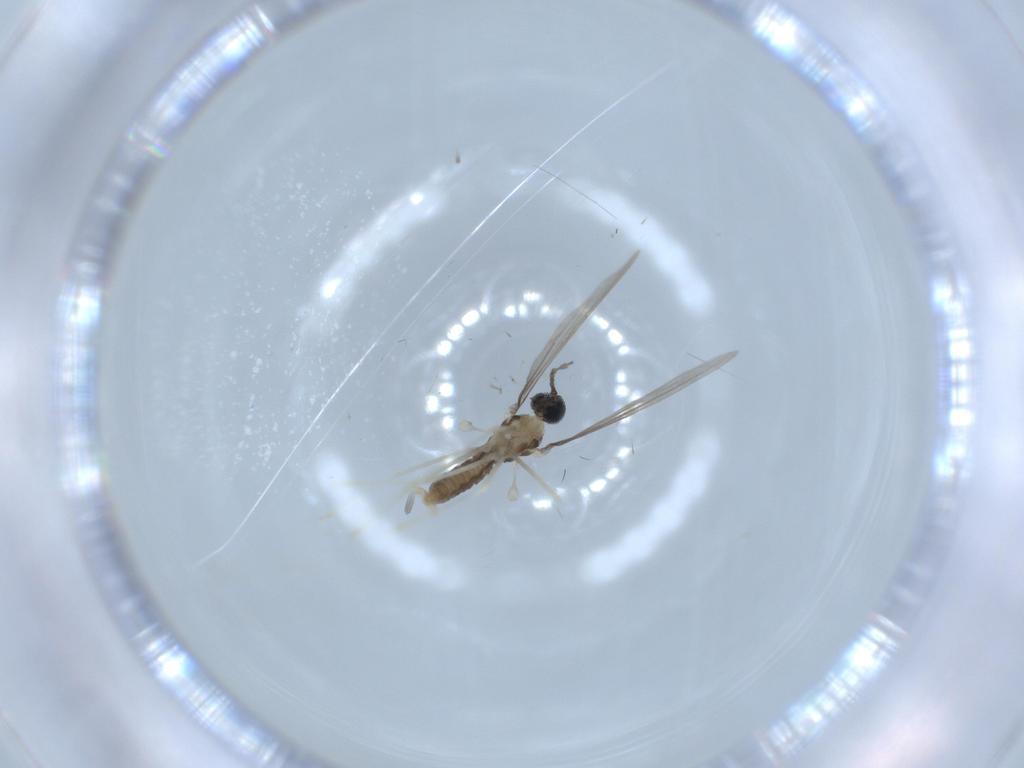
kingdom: Animalia
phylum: Arthropoda
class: Insecta
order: Diptera
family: Cecidomyiidae
